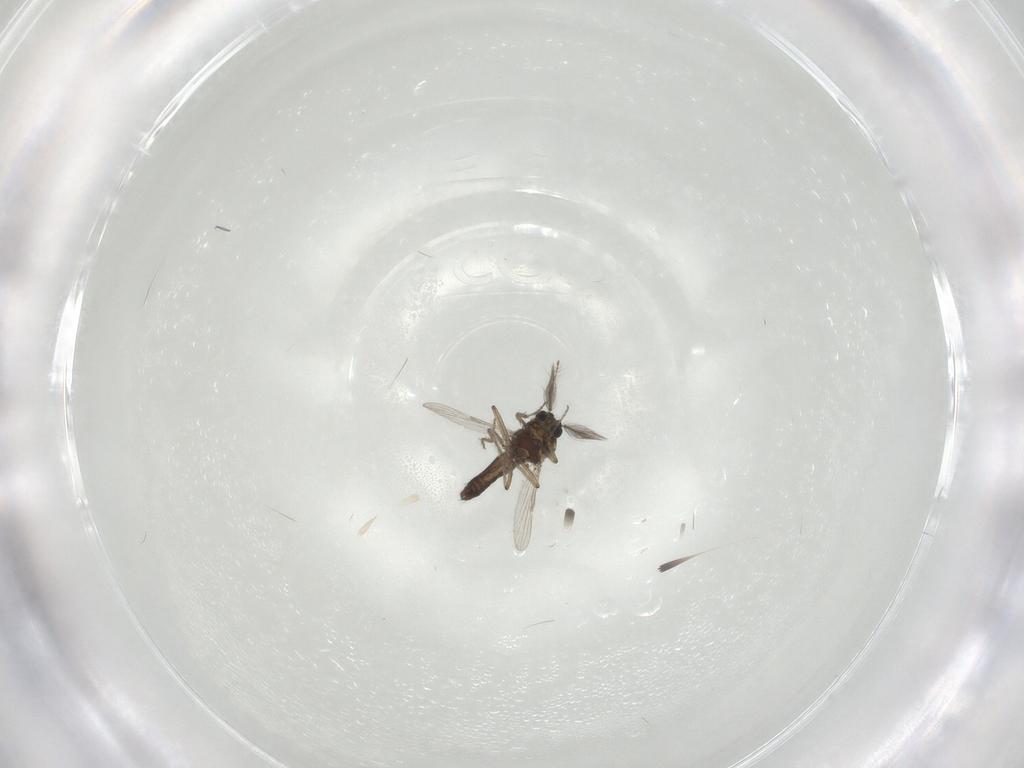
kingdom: Animalia
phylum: Arthropoda
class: Insecta
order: Diptera
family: Ceratopogonidae
